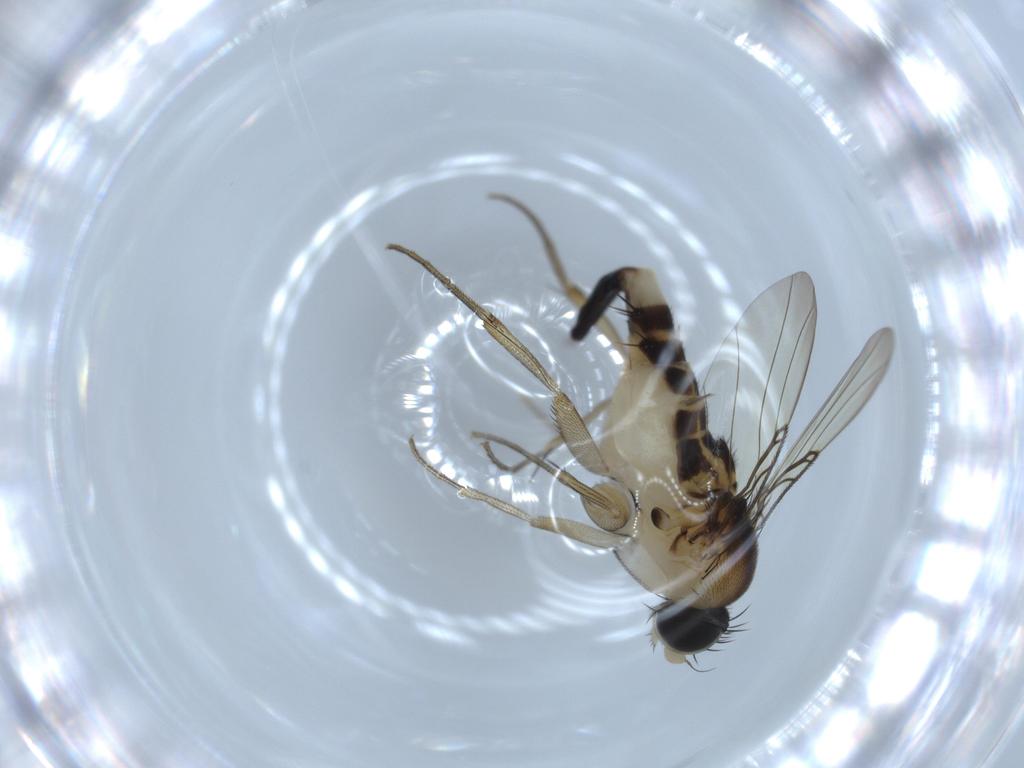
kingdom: Animalia
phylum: Arthropoda
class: Insecta
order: Diptera
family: Phoridae
